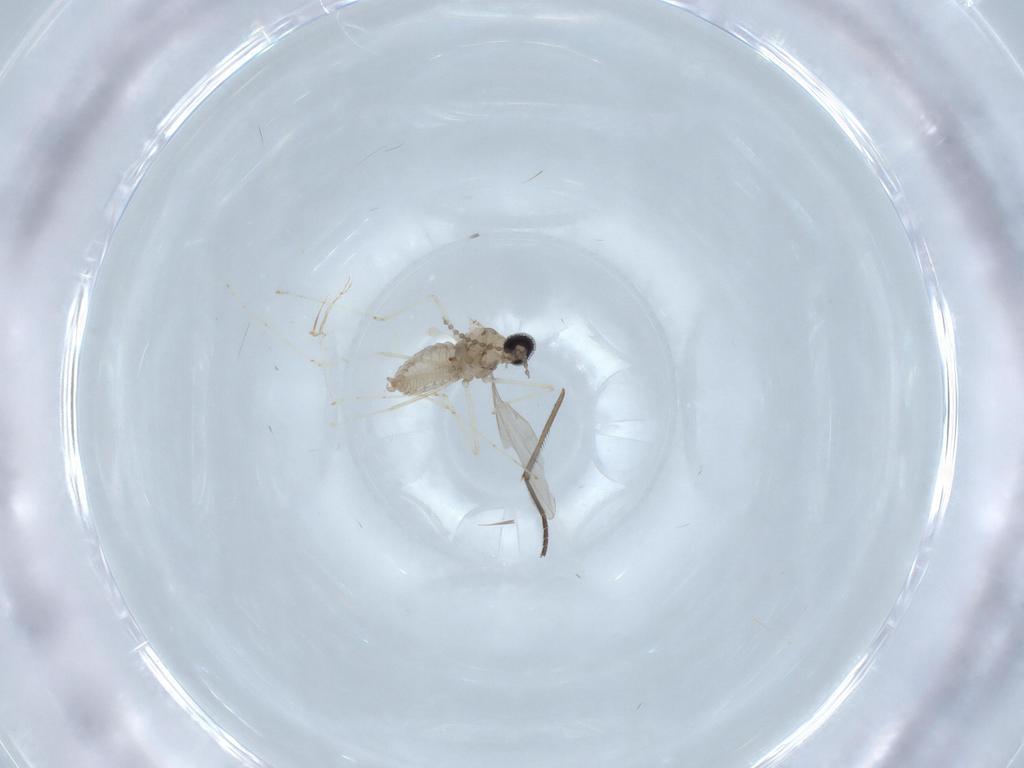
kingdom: Animalia
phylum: Arthropoda
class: Insecta
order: Diptera
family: Cecidomyiidae
